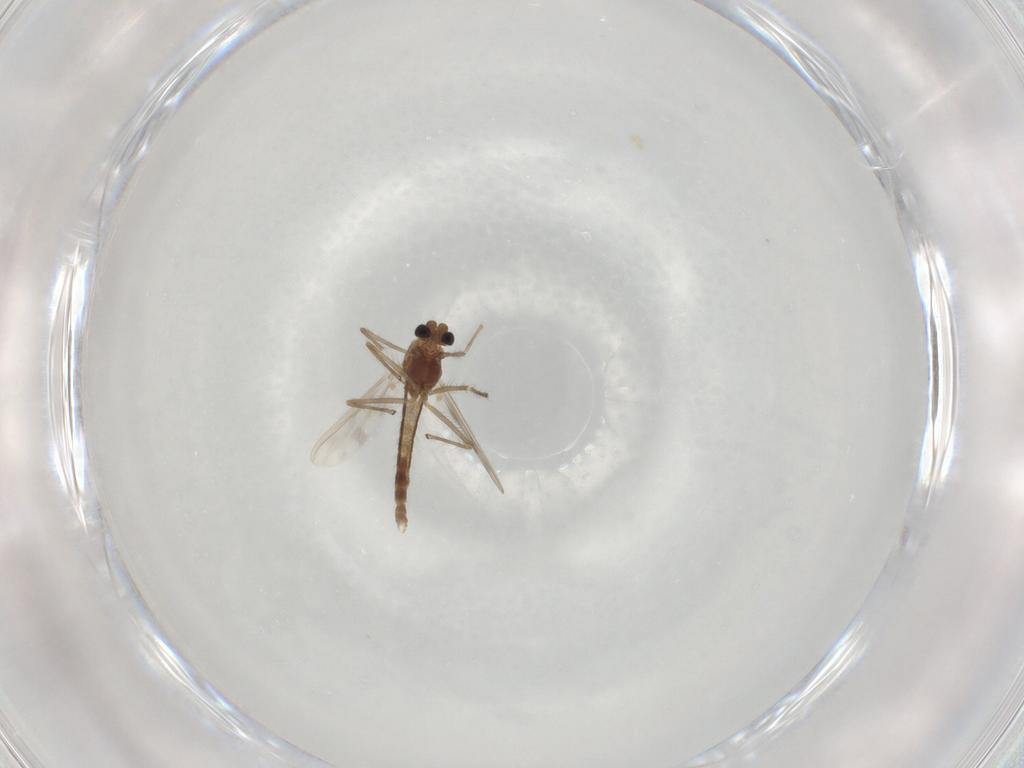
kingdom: Animalia
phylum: Arthropoda
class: Insecta
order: Diptera
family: Chironomidae
